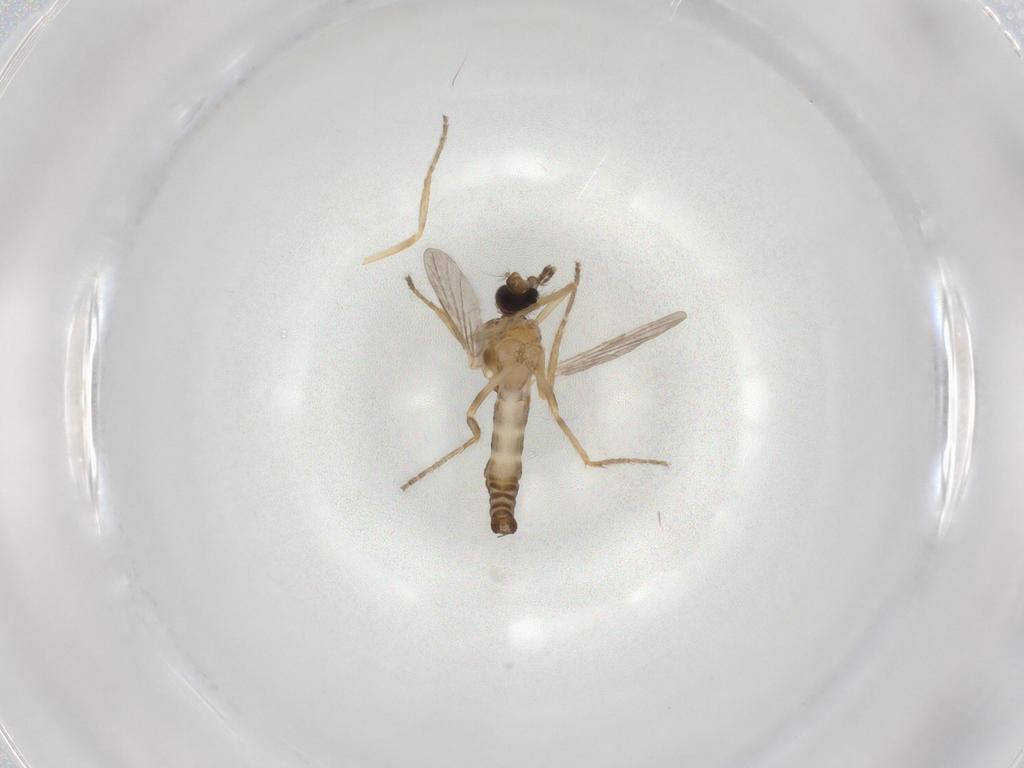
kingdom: Animalia
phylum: Arthropoda
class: Insecta
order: Diptera
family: Ceratopogonidae
